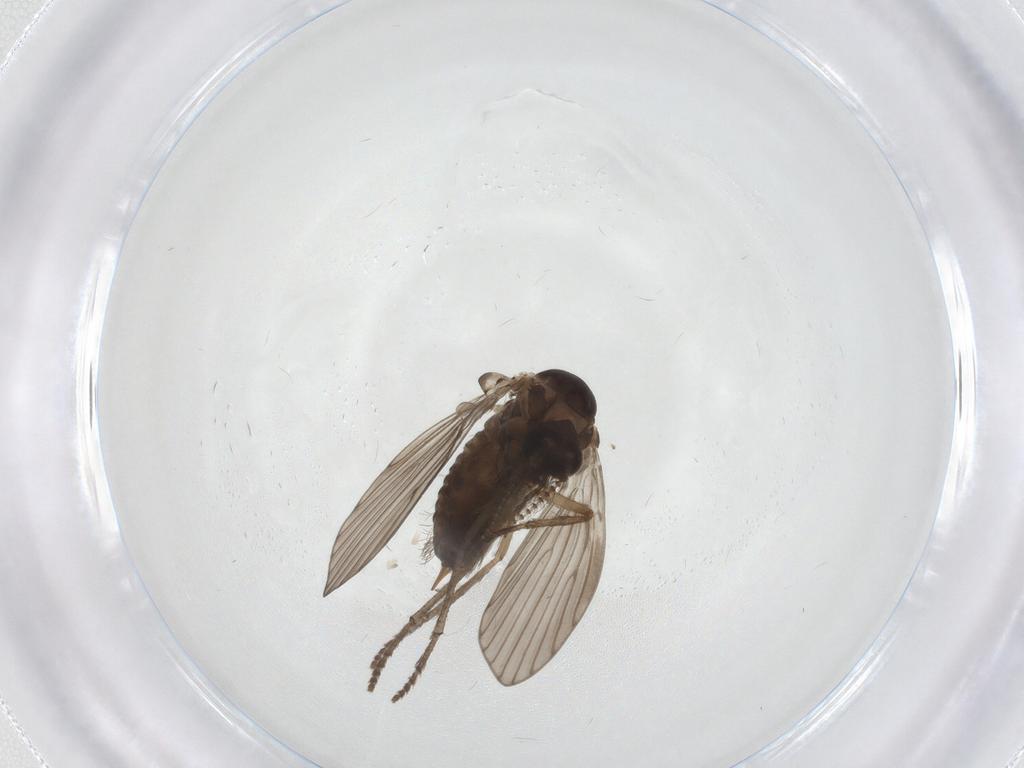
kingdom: Animalia
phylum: Arthropoda
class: Insecta
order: Diptera
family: Psychodidae
